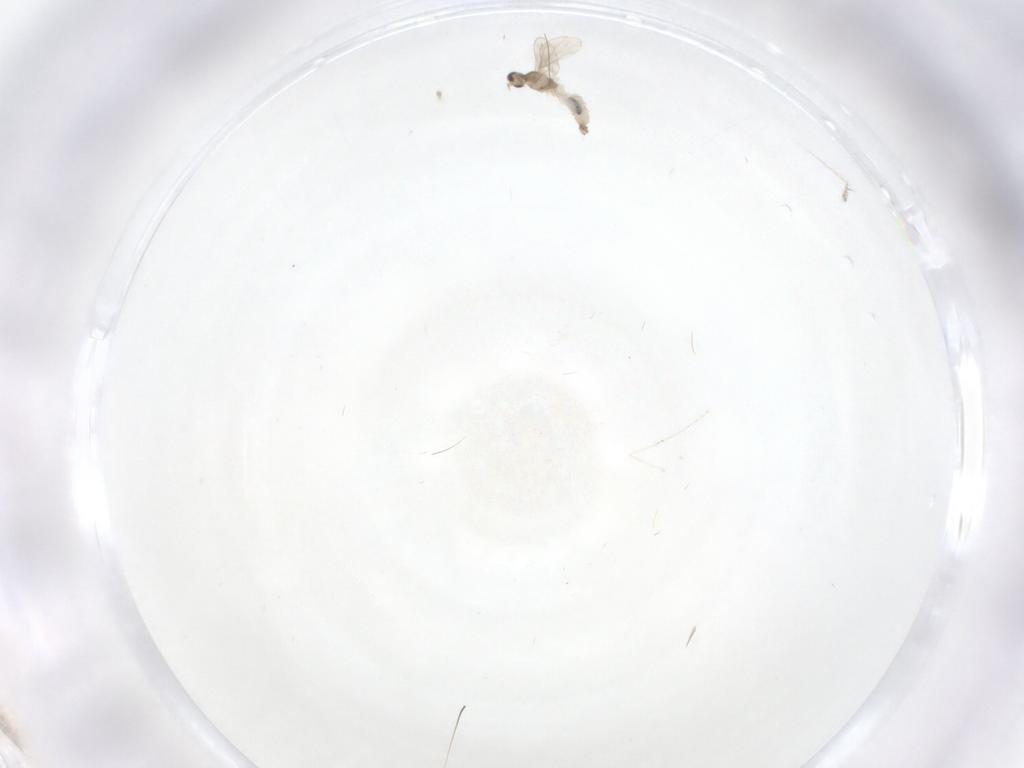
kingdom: Animalia
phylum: Arthropoda
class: Insecta
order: Diptera
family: Cecidomyiidae
